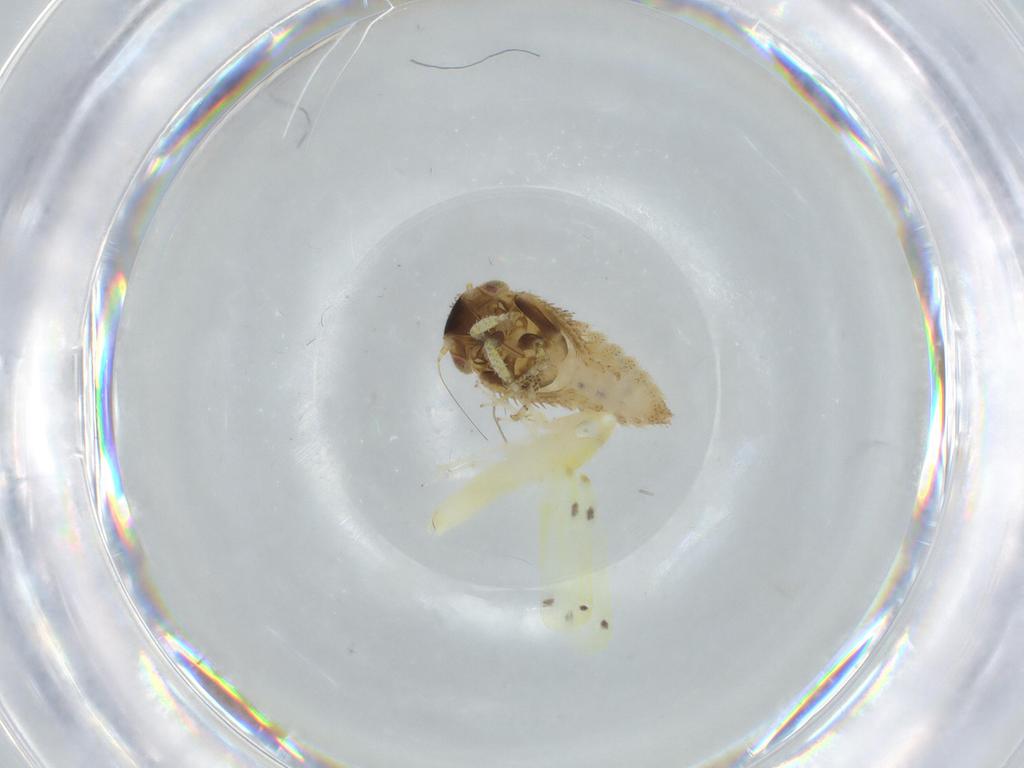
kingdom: Animalia
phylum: Arthropoda
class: Insecta
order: Hemiptera
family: Cicadellidae
